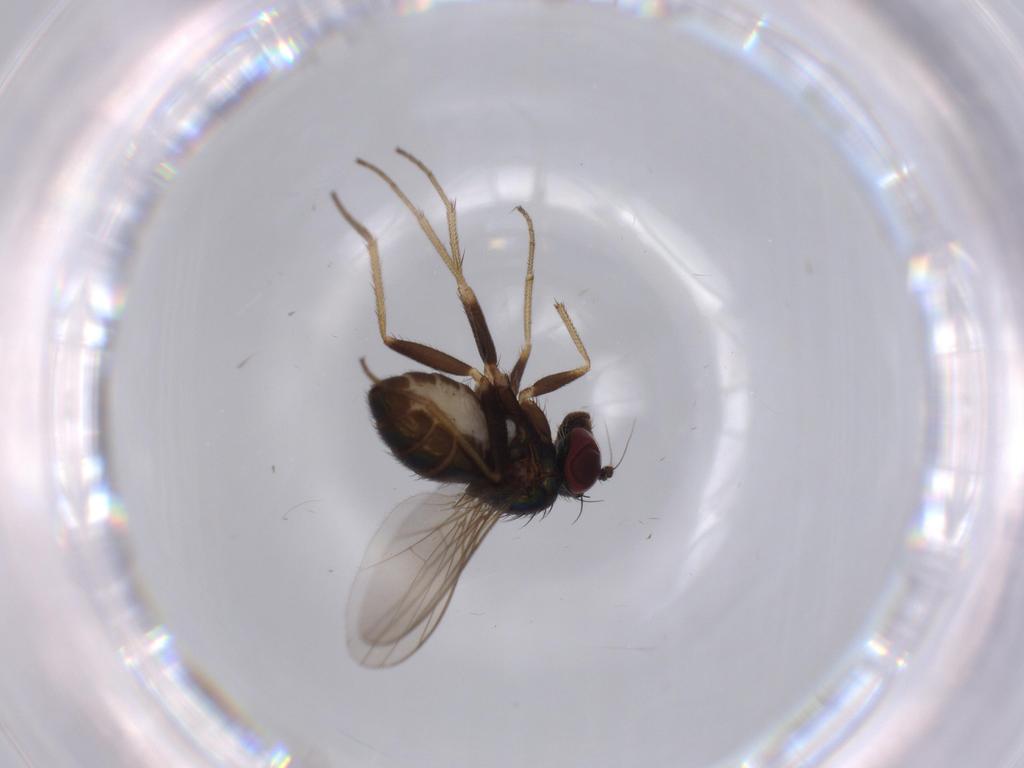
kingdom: Animalia
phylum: Arthropoda
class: Insecta
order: Diptera
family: Dolichopodidae
